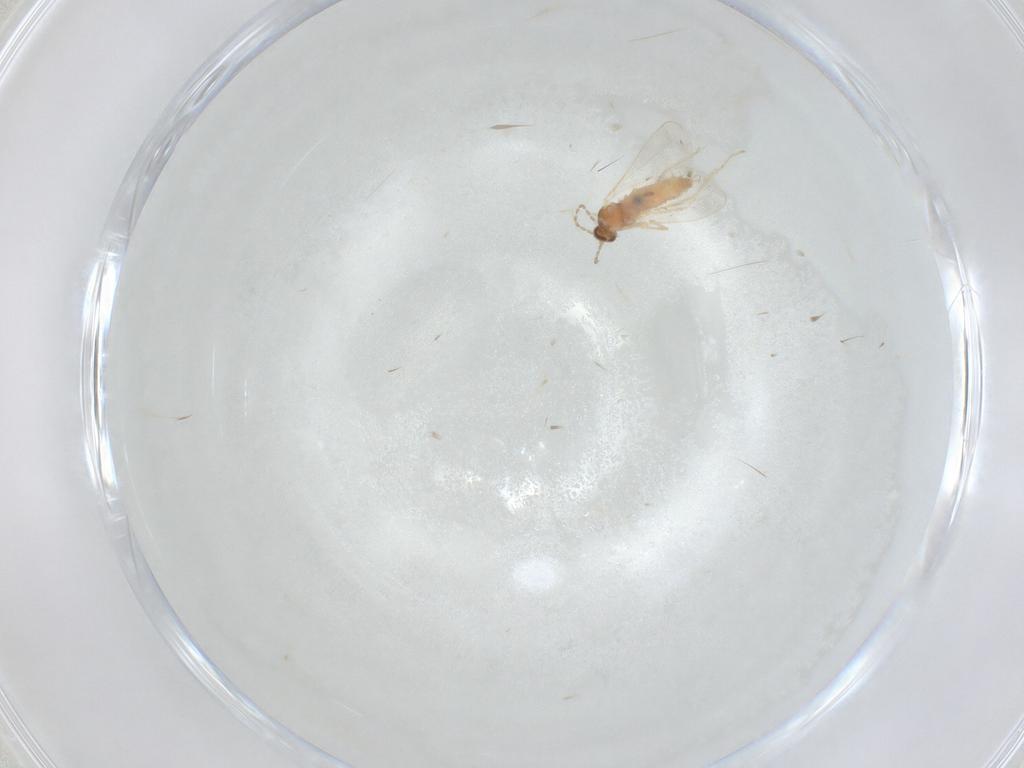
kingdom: Animalia
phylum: Arthropoda
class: Insecta
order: Diptera
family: Cecidomyiidae
